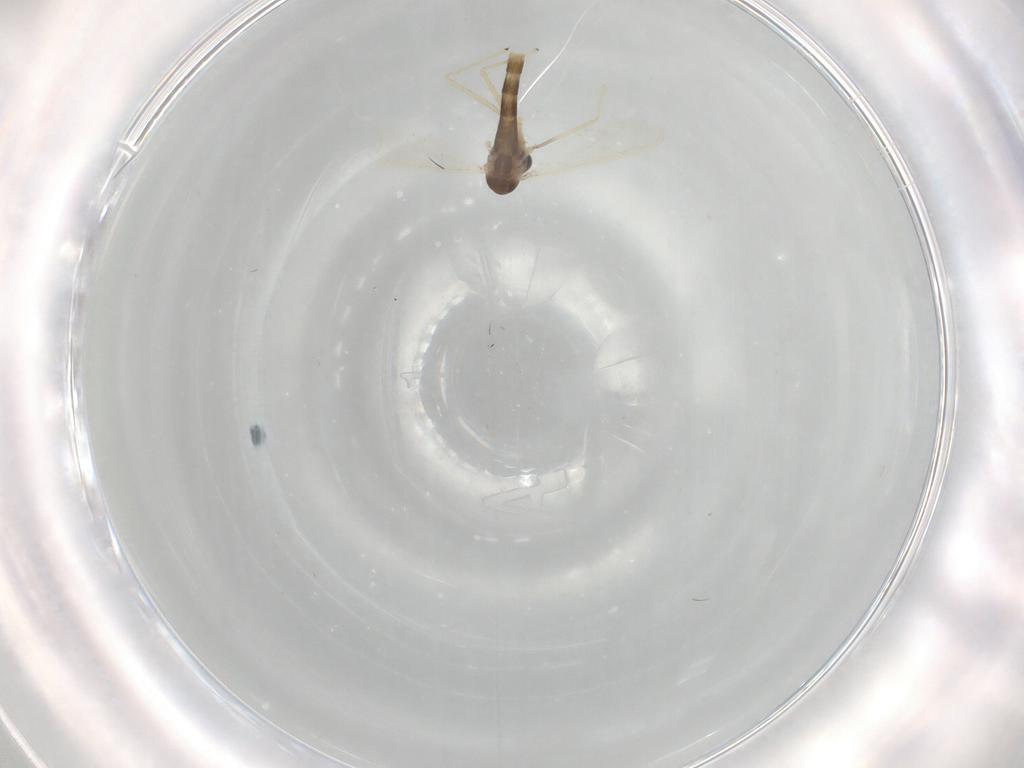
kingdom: Animalia
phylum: Arthropoda
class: Insecta
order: Diptera
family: Chironomidae
